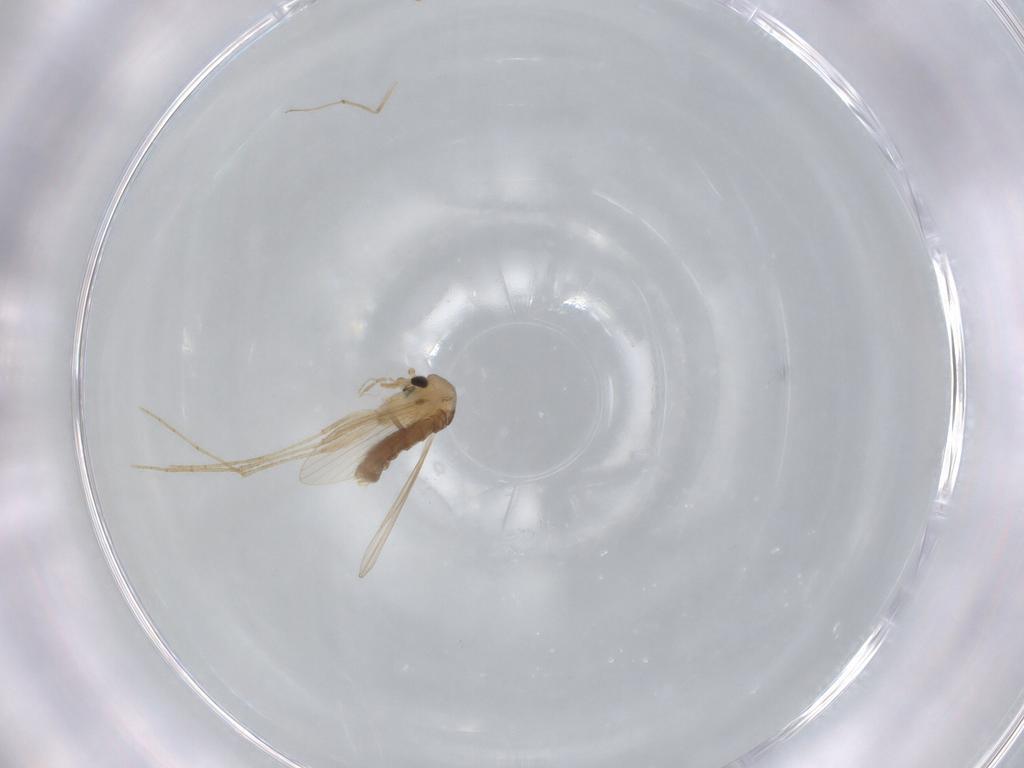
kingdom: Animalia
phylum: Arthropoda
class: Insecta
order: Diptera
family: Psychodidae
